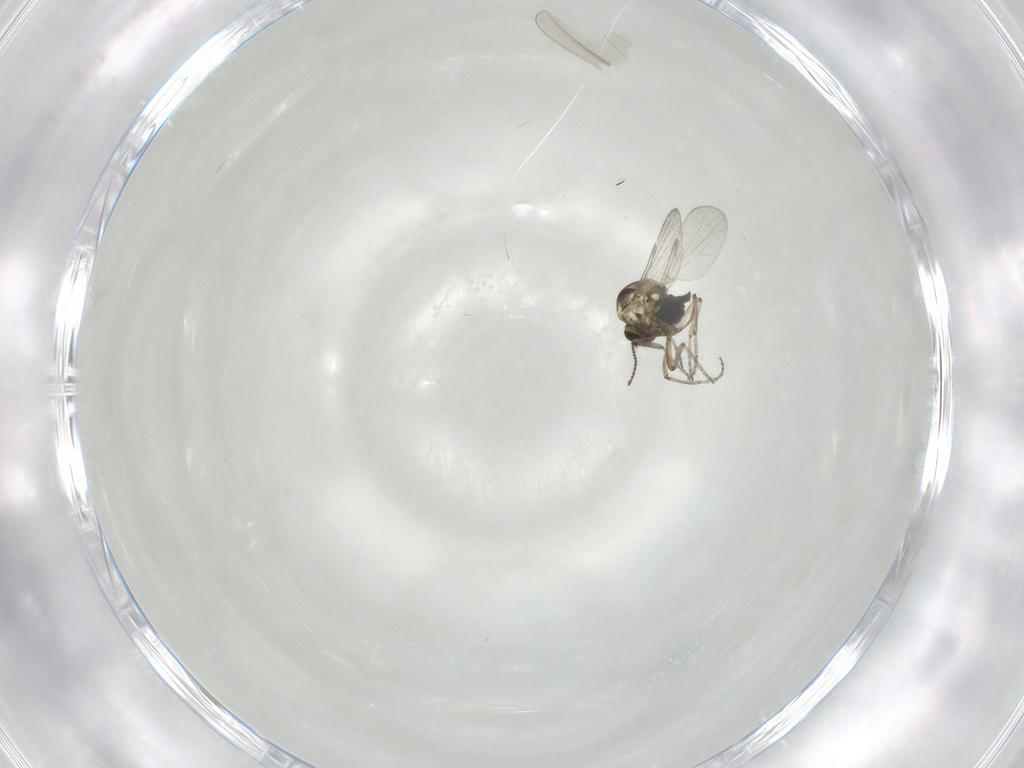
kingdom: Animalia
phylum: Arthropoda
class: Insecta
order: Diptera
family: Ceratopogonidae
